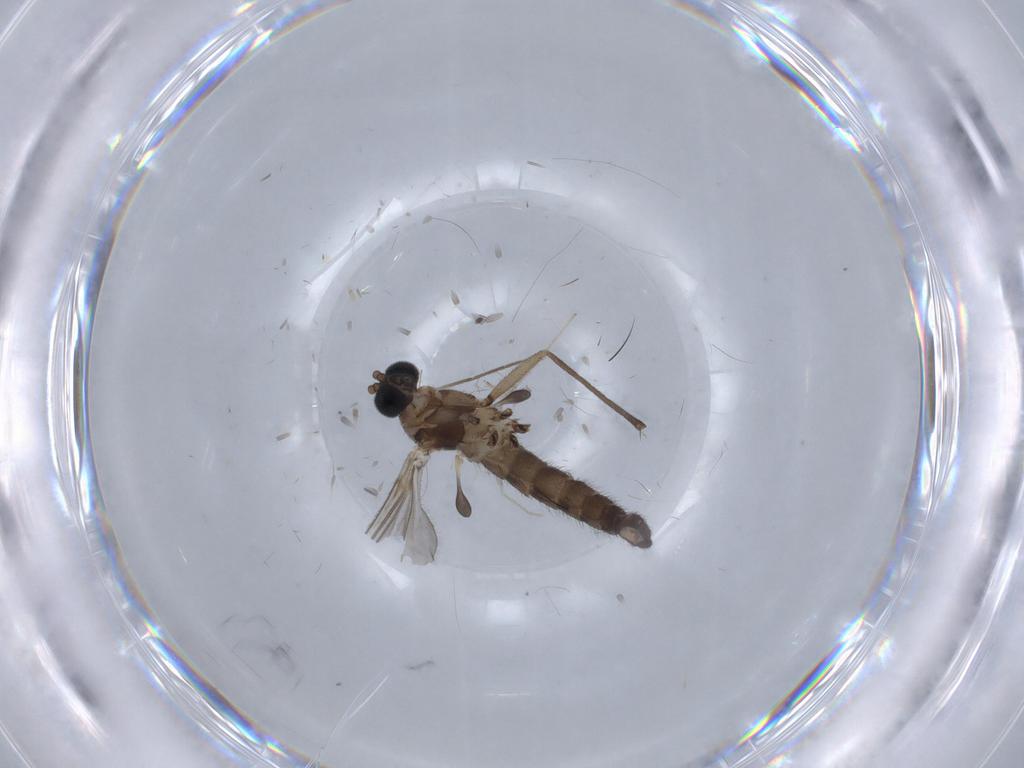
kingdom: Animalia
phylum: Arthropoda
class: Insecta
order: Diptera
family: Sciaridae
